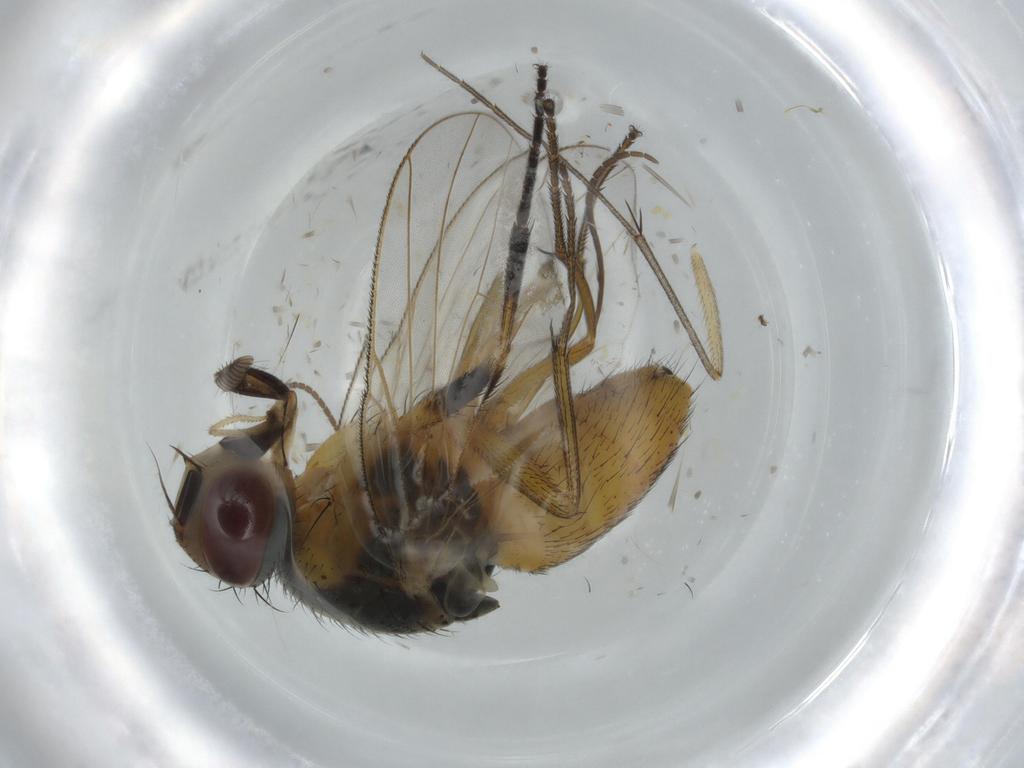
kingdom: Animalia
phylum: Arthropoda
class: Insecta
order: Diptera
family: Muscidae
